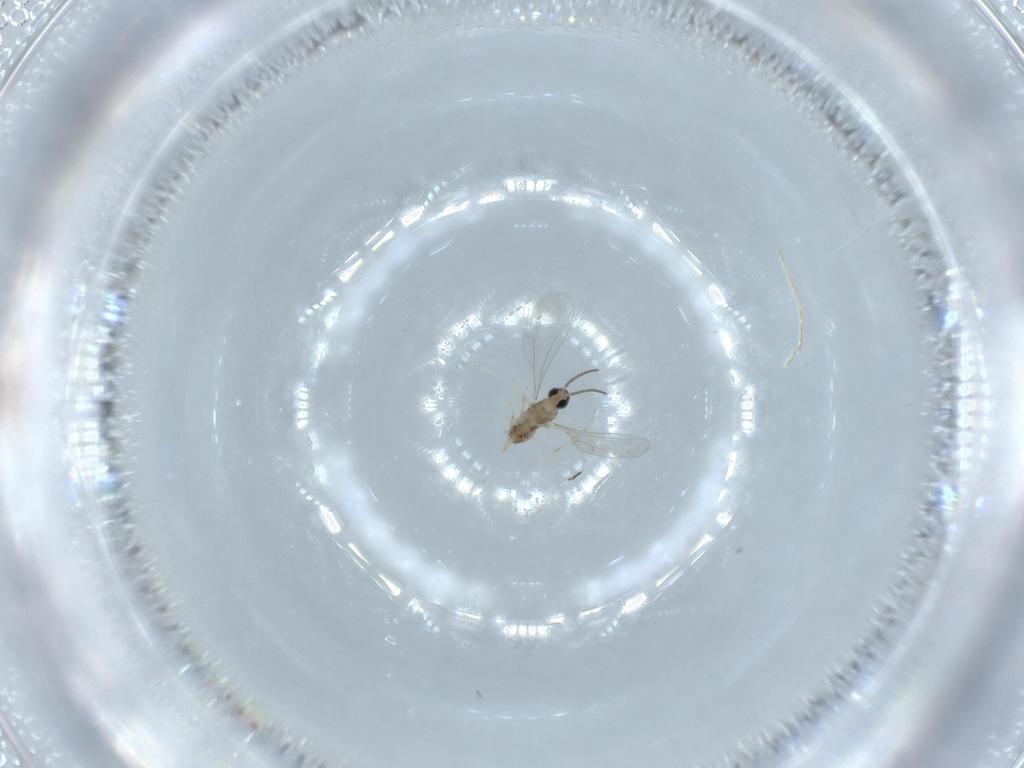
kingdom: Animalia
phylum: Arthropoda
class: Insecta
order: Diptera
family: Cecidomyiidae
